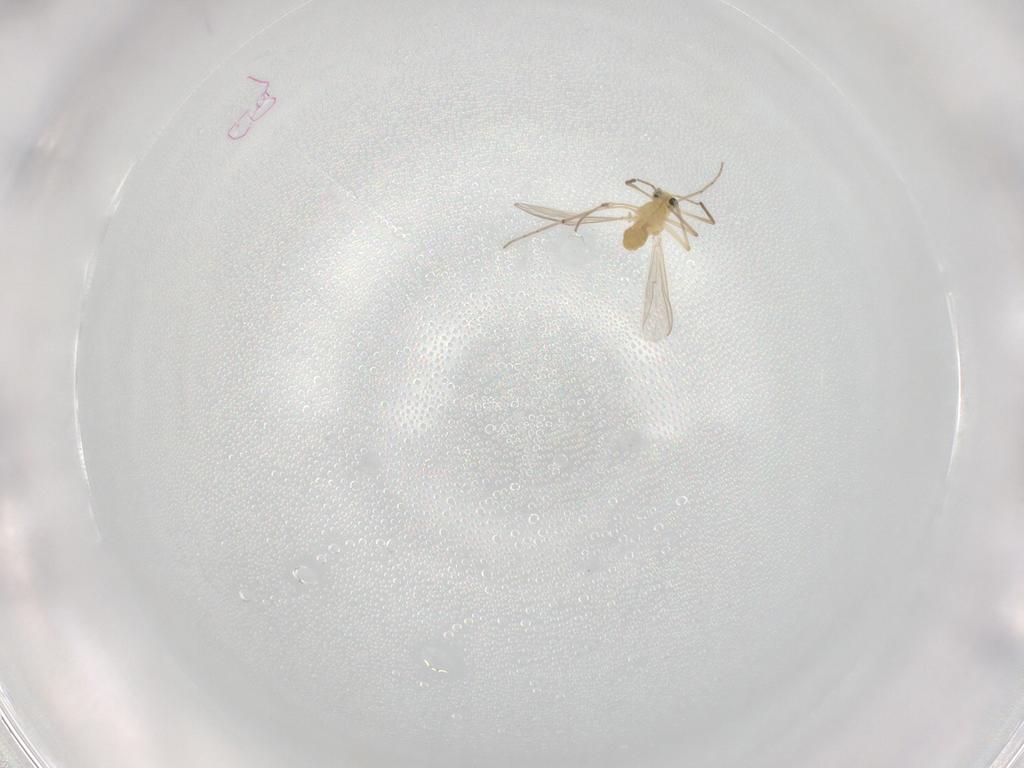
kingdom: Animalia
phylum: Arthropoda
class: Insecta
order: Diptera
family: Chironomidae
